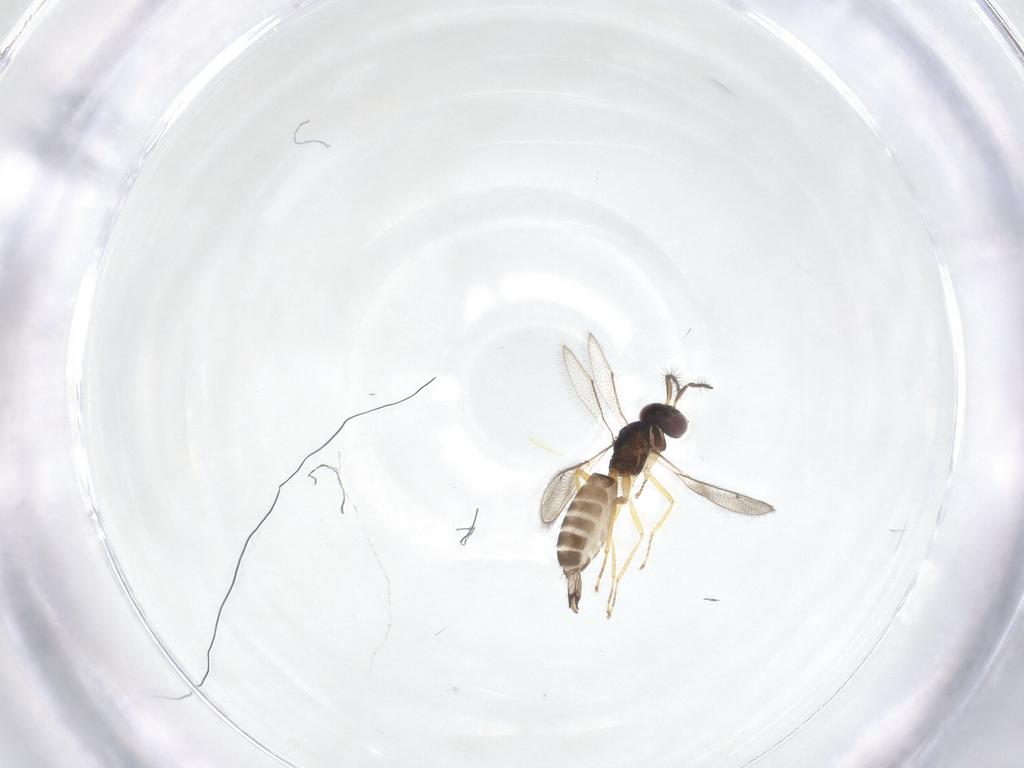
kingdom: Animalia
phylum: Arthropoda
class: Insecta
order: Hymenoptera
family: Eulophidae
